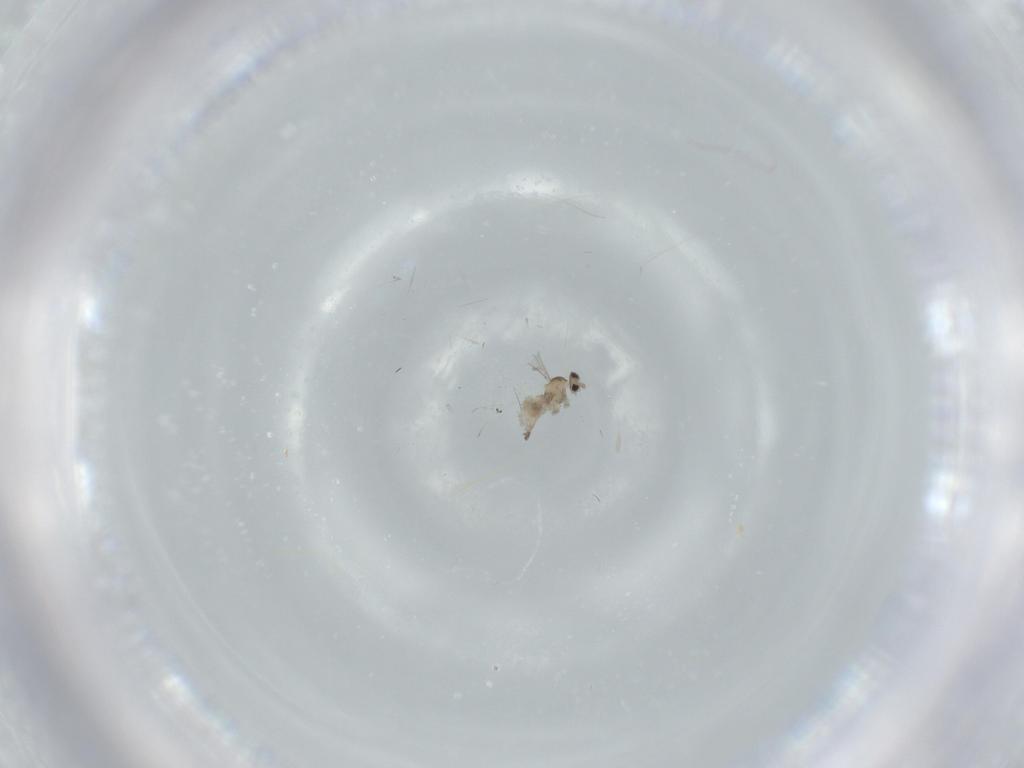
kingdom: Animalia
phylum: Arthropoda
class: Insecta
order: Diptera
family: Cecidomyiidae
